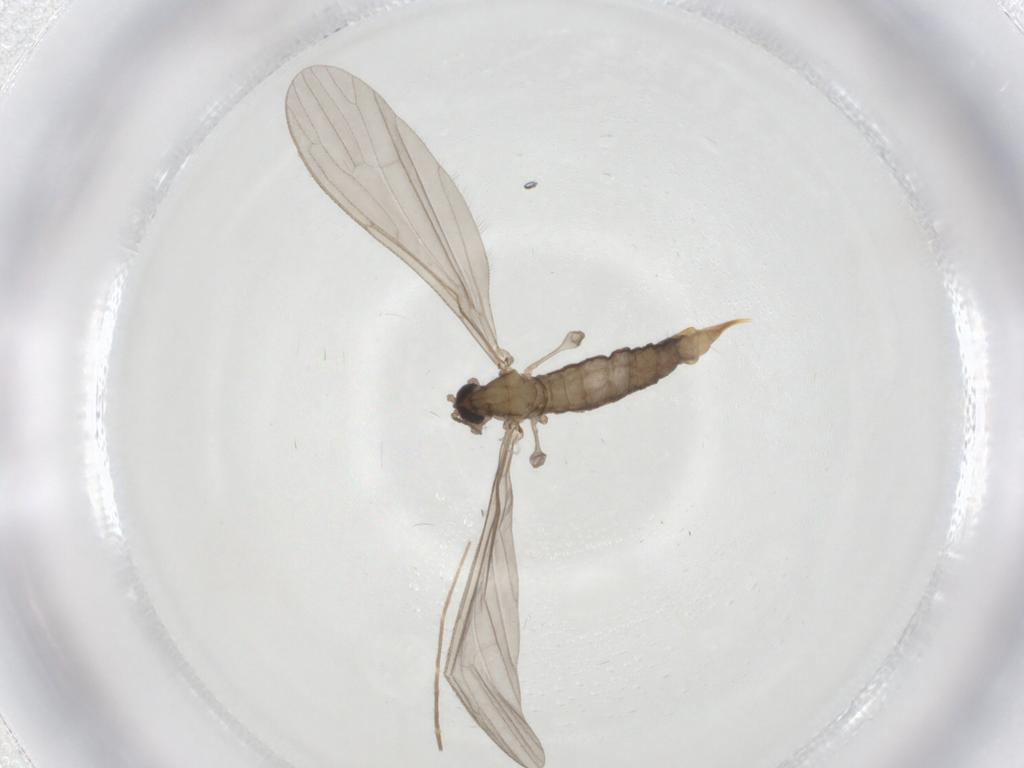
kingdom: Animalia
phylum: Arthropoda
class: Insecta
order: Diptera
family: Limoniidae
